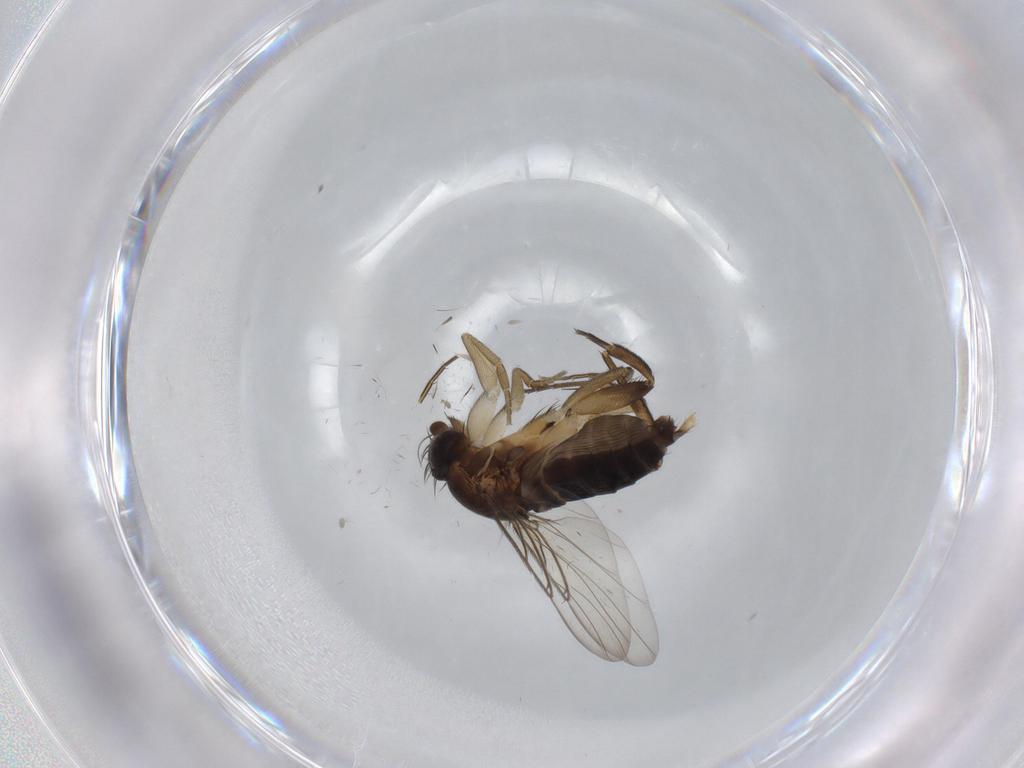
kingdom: Animalia
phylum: Arthropoda
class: Insecta
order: Diptera
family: Phoridae
